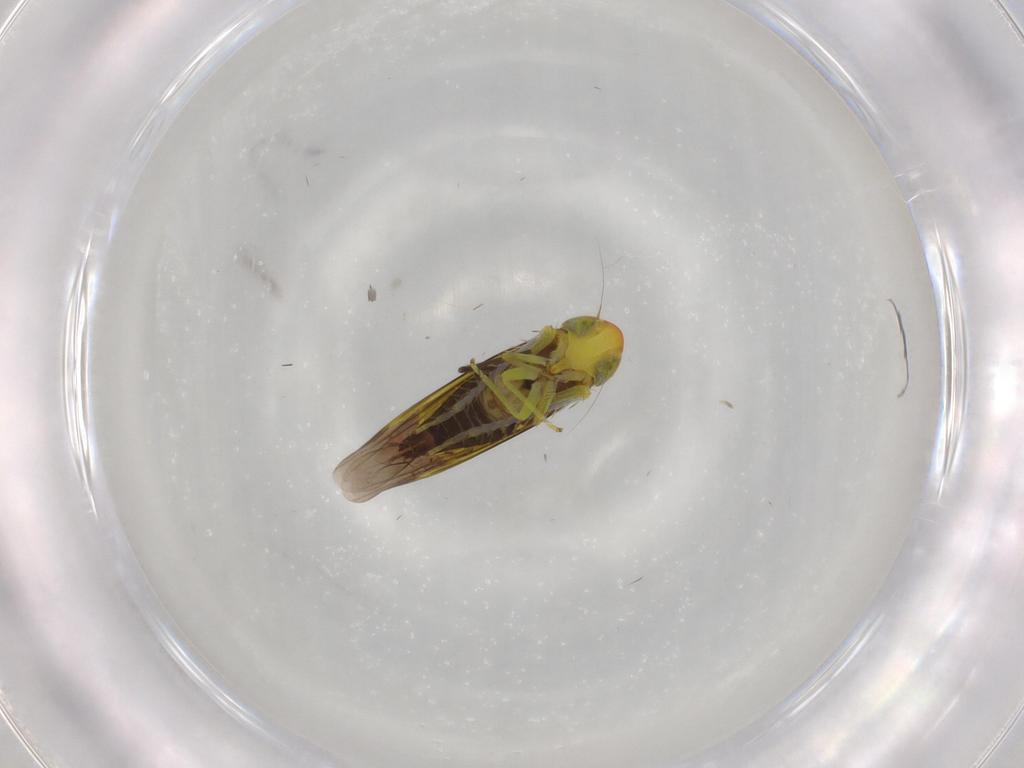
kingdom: Animalia
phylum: Arthropoda
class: Insecta
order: Hemiptera
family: Cicadellidae
